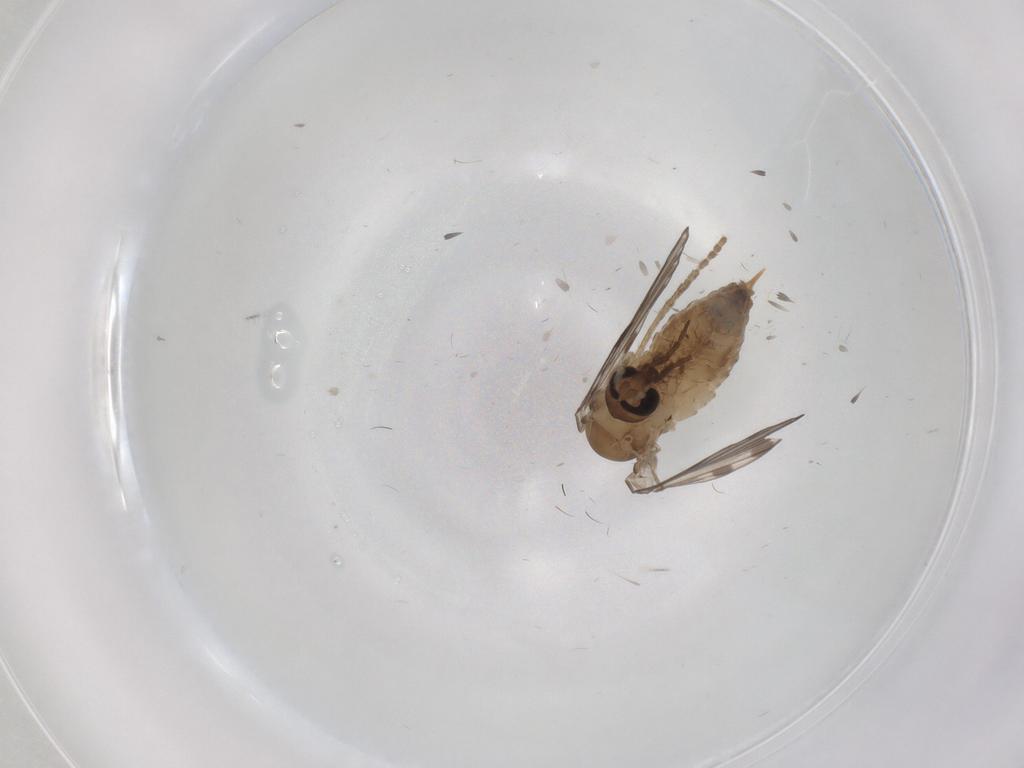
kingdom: Animalia
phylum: Arthropoda
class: Insecta
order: Diptera
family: Psychodidae
